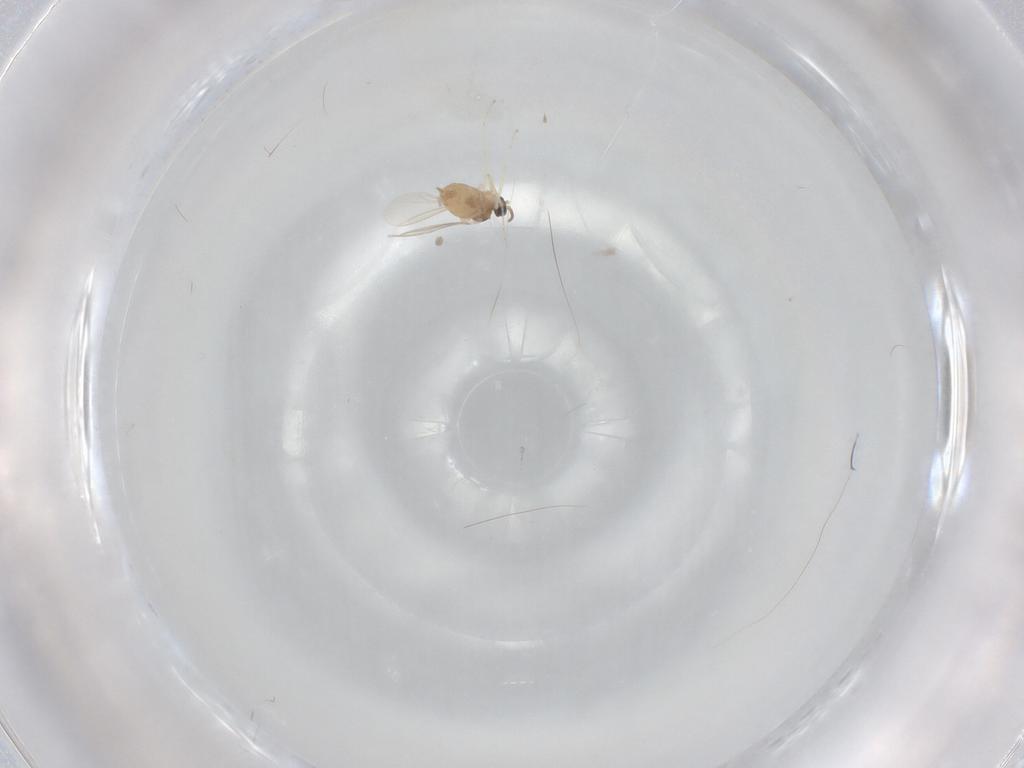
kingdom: Animalia
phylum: Arthropoda
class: Insecta
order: Diptera
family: Cecidomyiidae
